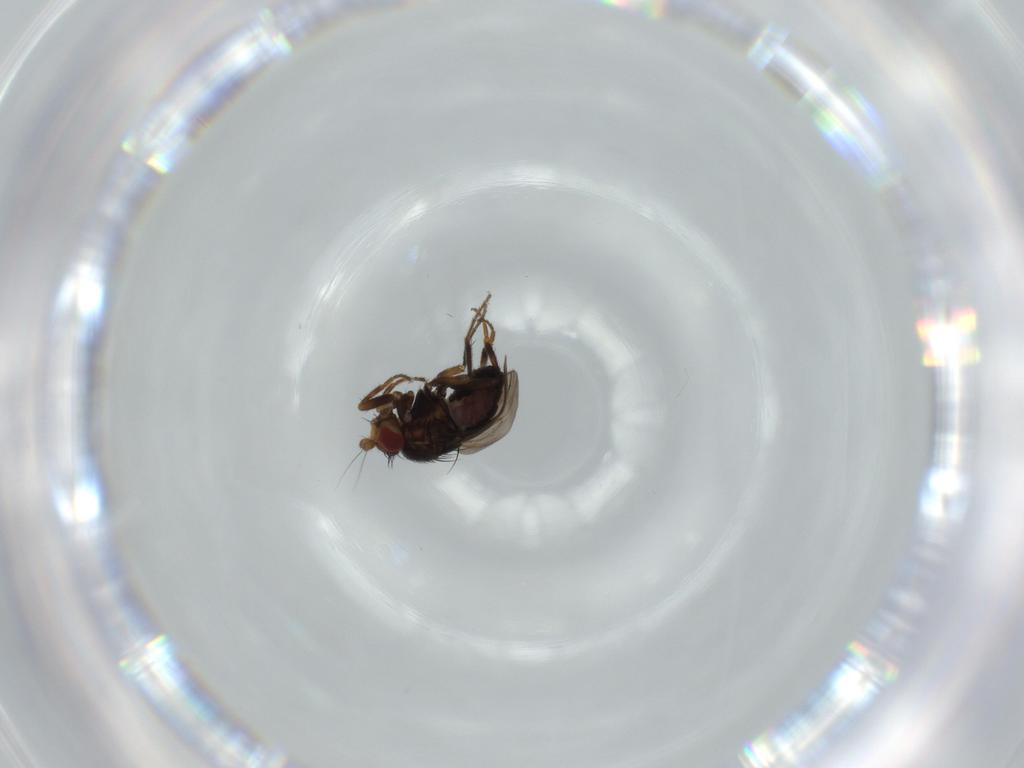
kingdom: Animalia
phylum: Arthropoda
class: Insecta
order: Diptera
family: Sphaeroceridae
